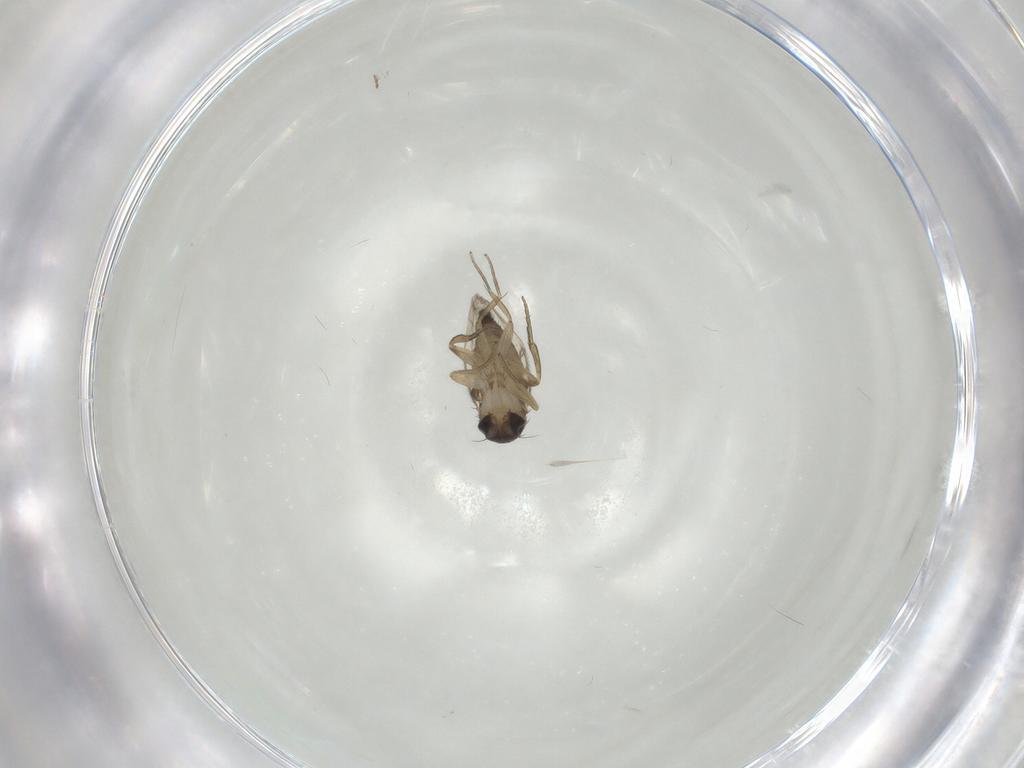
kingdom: Animalia
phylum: Arthropoda
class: Insecta
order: Diptera
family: Phoridae
